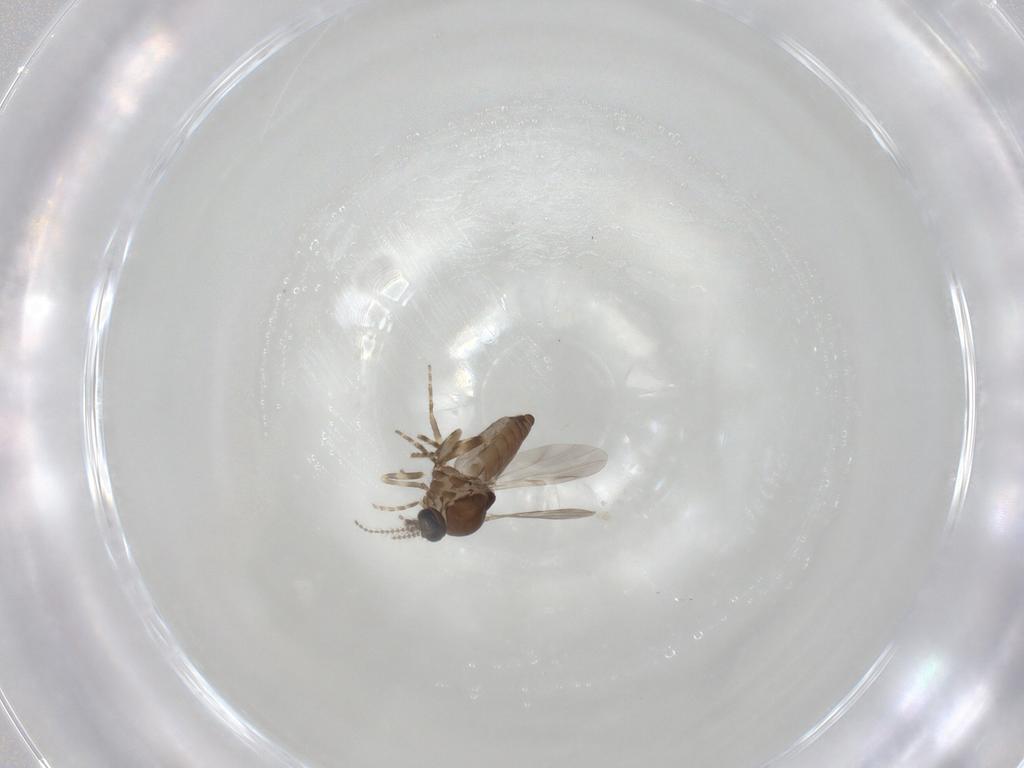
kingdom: Animalia
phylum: Arthropoda
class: Insecta
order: Diptera
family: Ceratopogonidae
